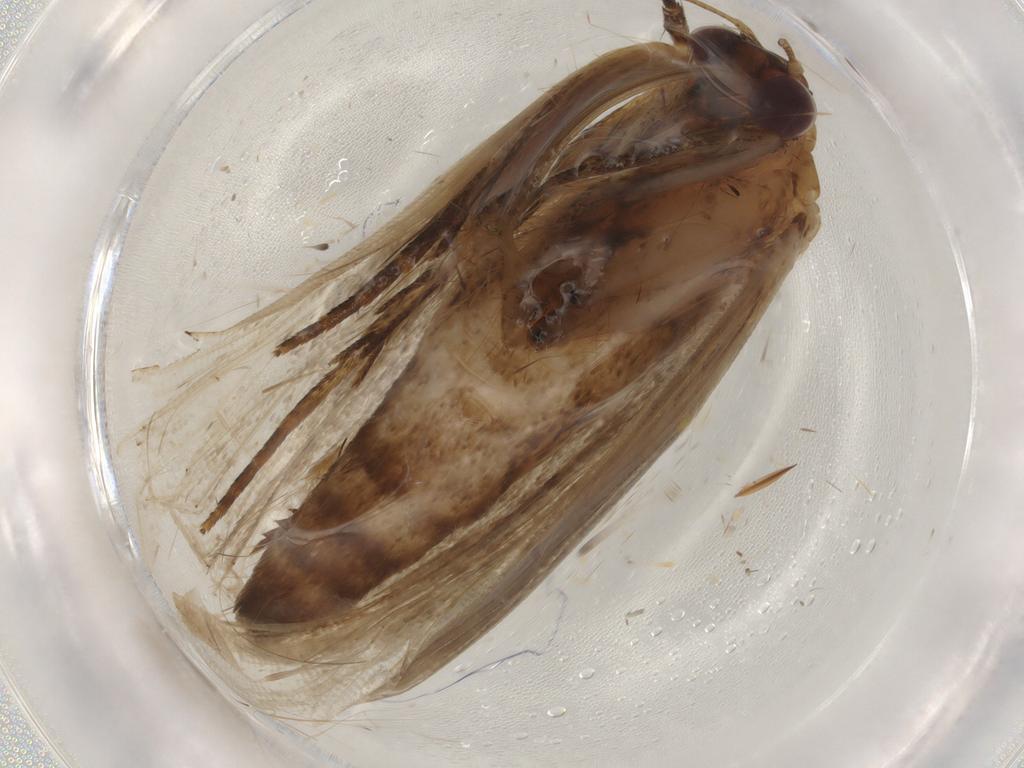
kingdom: Animalia
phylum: Arthropoda
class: Insecta
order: Lepidoptera
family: Erebidae
